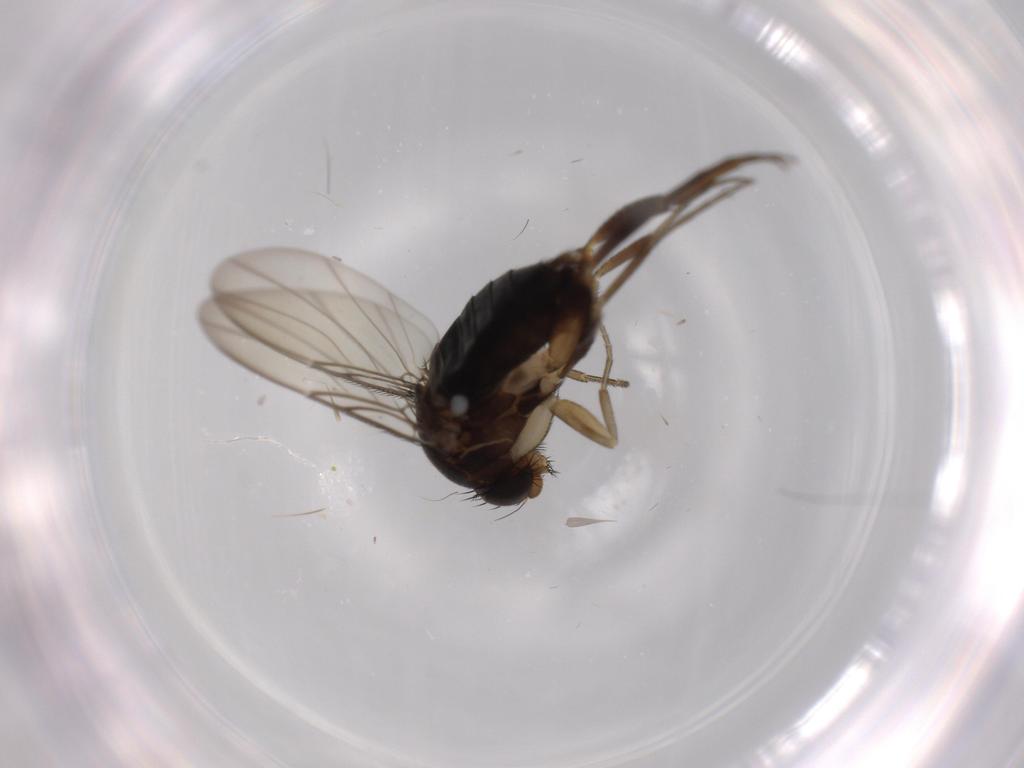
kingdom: Animalia
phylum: Arthropoda
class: Insecta
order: Diptera
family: Phoridae
